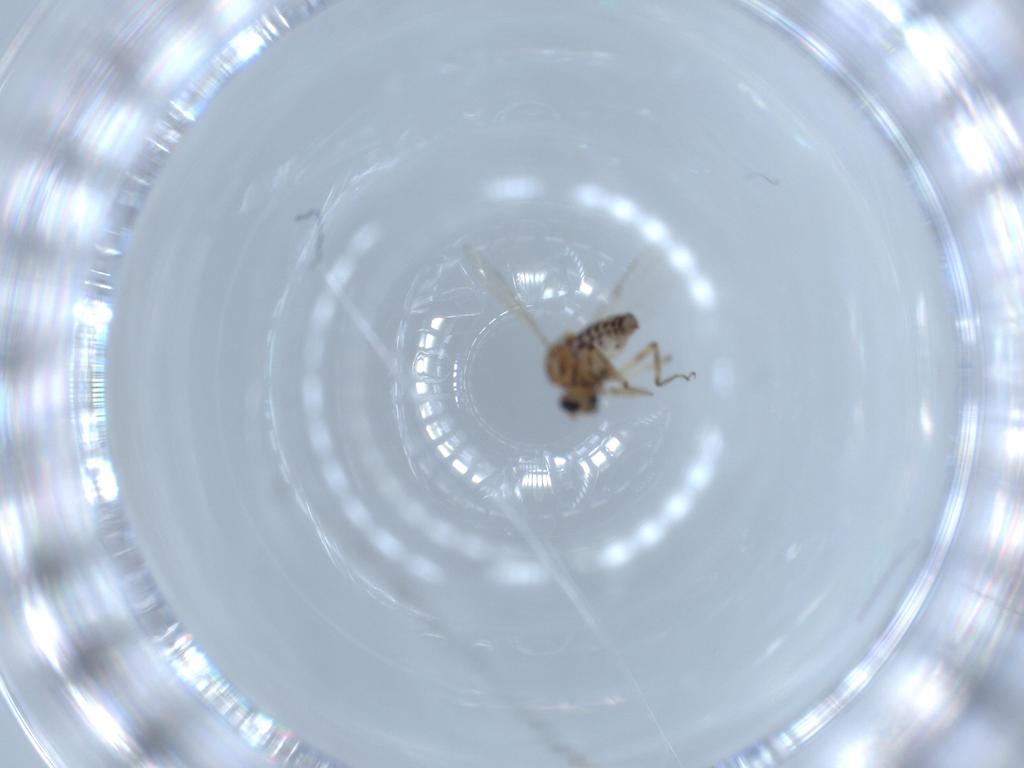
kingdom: Animalia
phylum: Arthropoda
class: Insecta
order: Diptera
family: Ceratopogonidae
